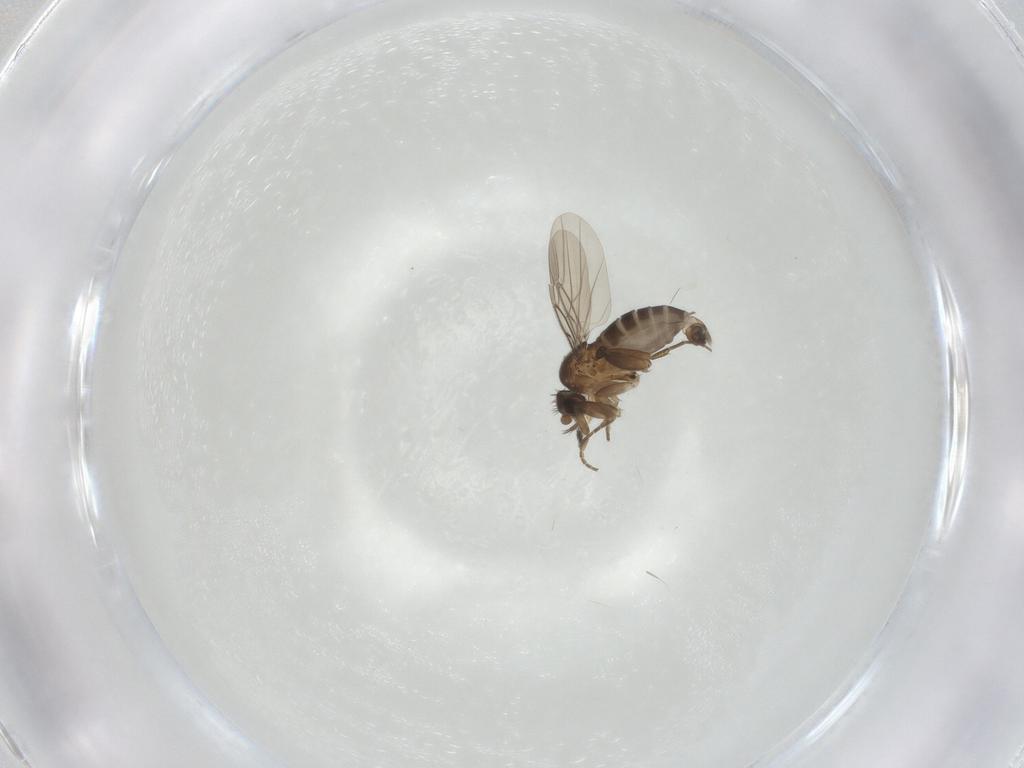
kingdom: Animalia
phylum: Arthropoda
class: Insecta
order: Diptera
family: Phoridae
